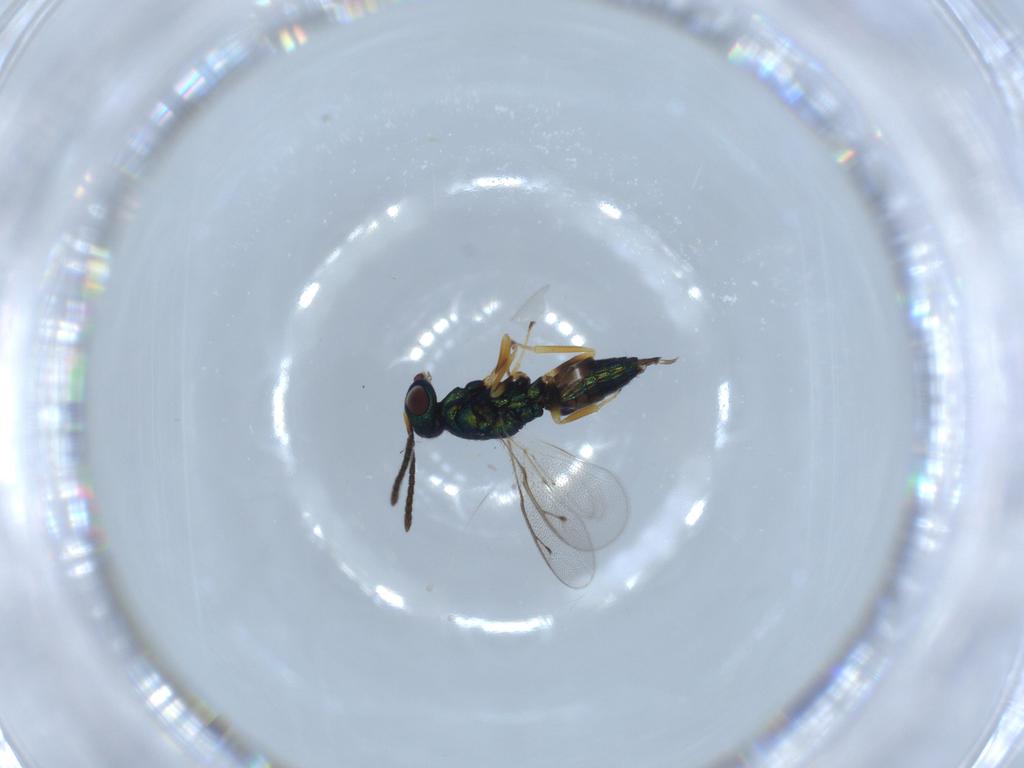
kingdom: Animalia
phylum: Arthropoda
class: Insecta
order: Hymenoptera
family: Pteromalidae
